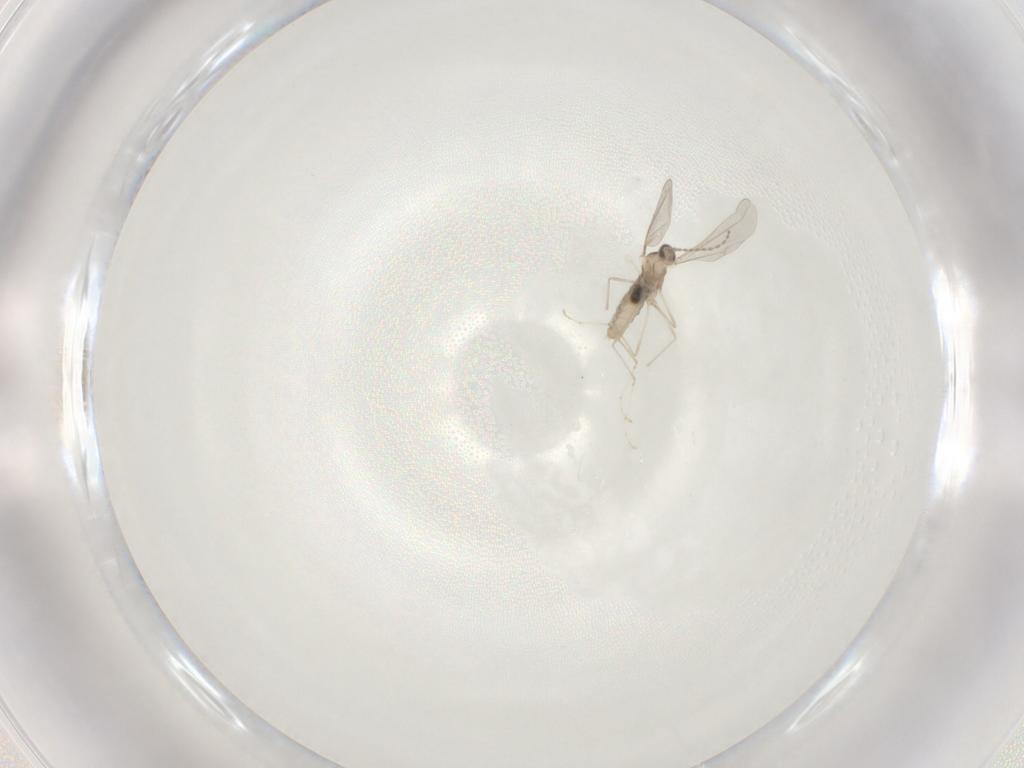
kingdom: Animalia
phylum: Arthropoda
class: Insecta
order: Diptera
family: Cecidomyiidae
